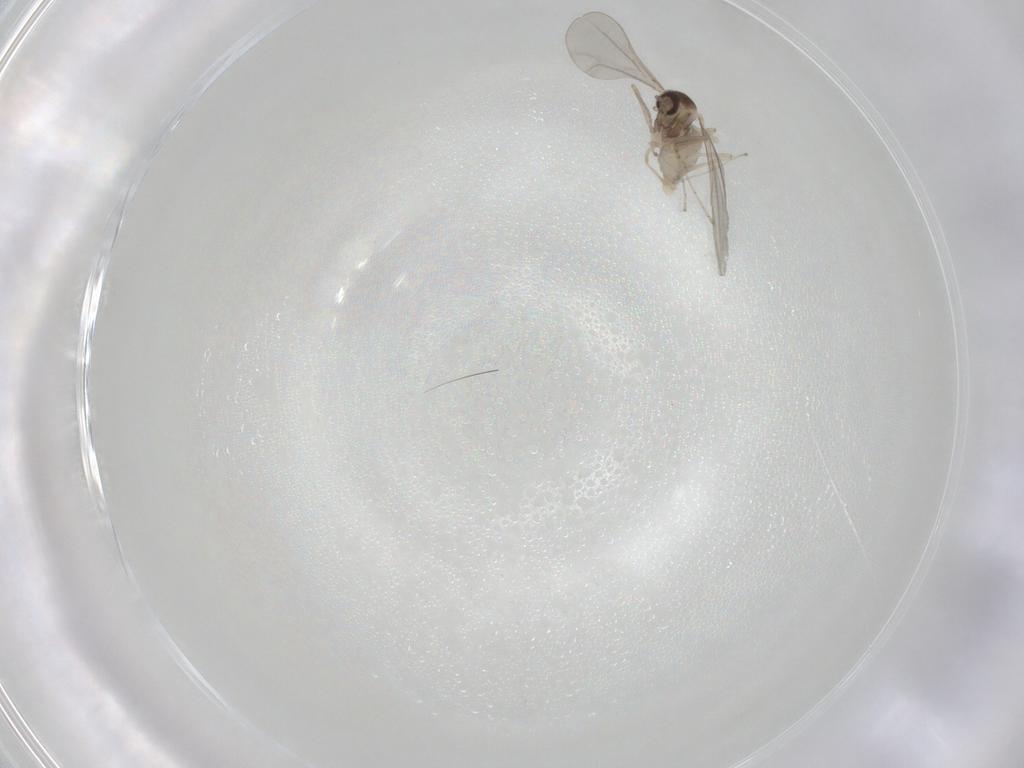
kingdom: Animalia
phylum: Arthropoda
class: Insecta
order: Diptera
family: Cecidomyiidae
